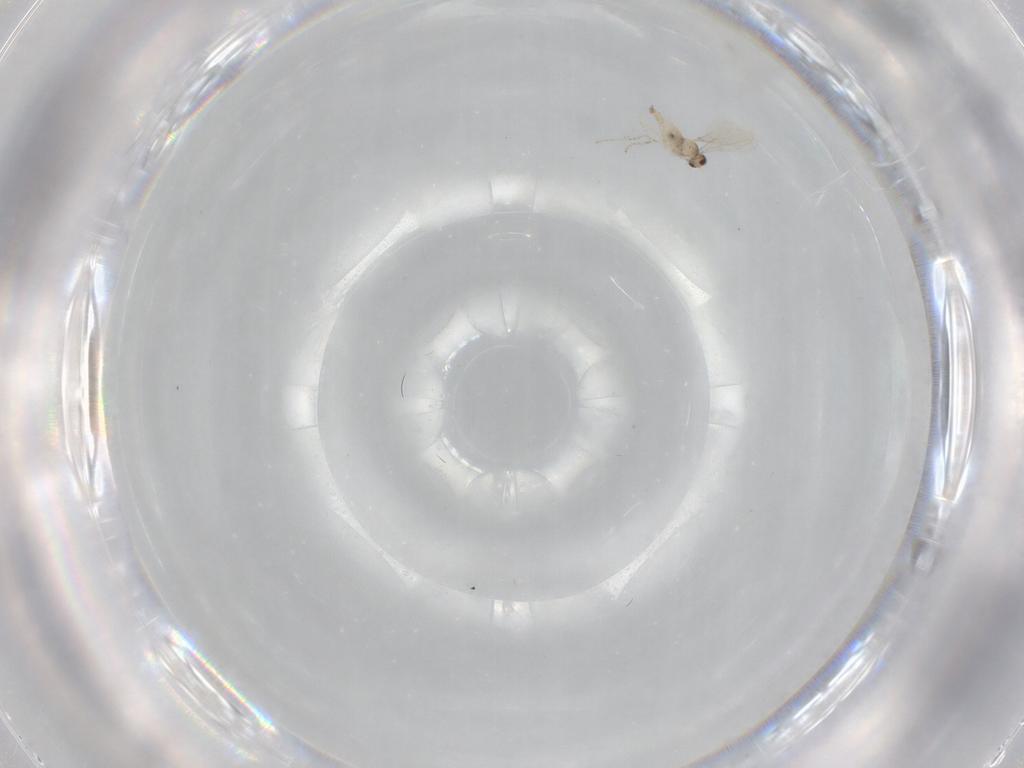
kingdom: Animalia
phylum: Arthropoda
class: Insecta
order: Diptera
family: Cecidomyiidae
